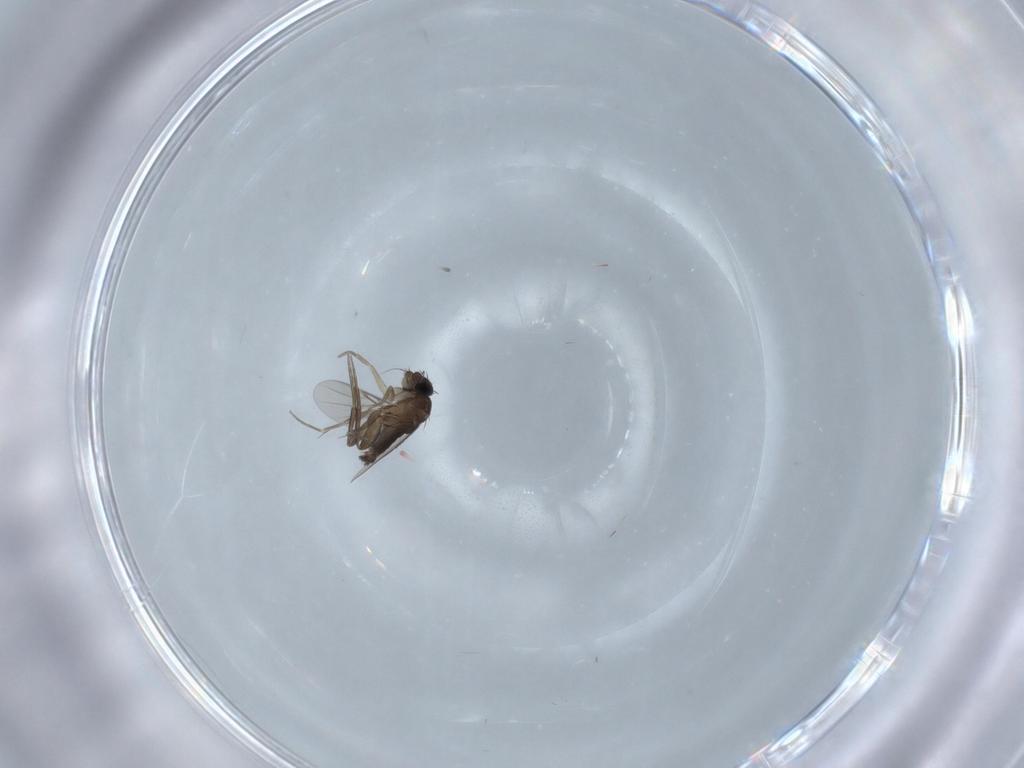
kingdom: Animalia
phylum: Arthropoda
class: Insecta
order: Diptera
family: Phoridae
